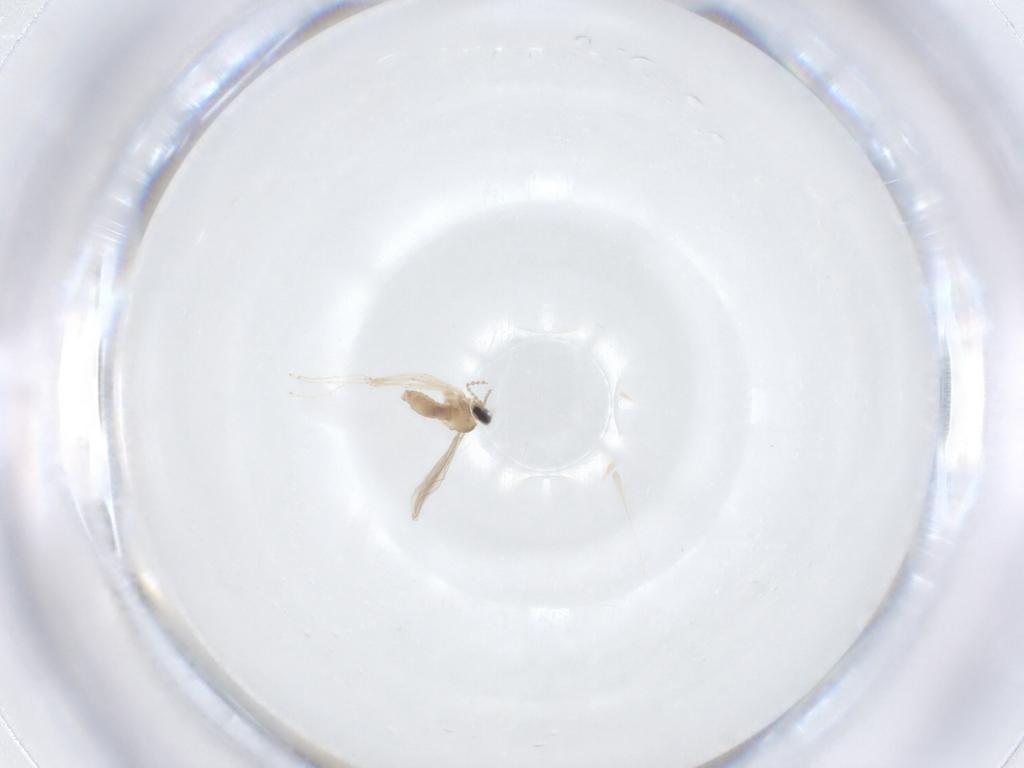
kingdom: Animalia
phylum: Arthropoda
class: Insecta
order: Diptera
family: Cecidomyiidae
